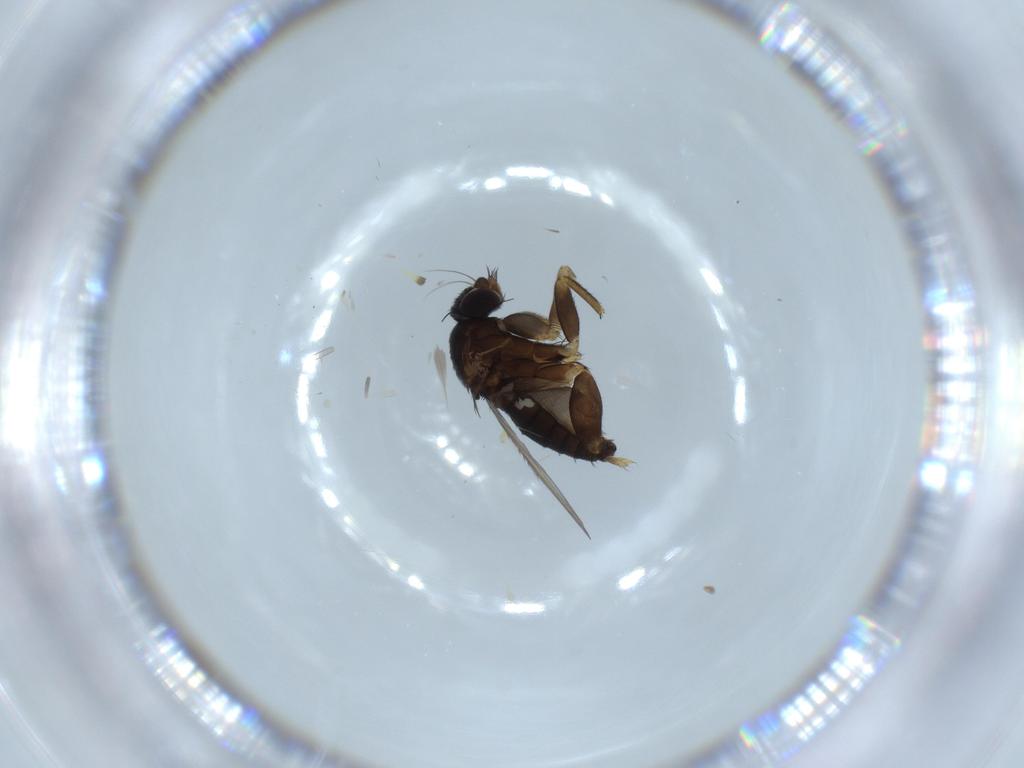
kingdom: Animalia
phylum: Arthropoda
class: Insecta
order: Diptera
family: Phoridae
